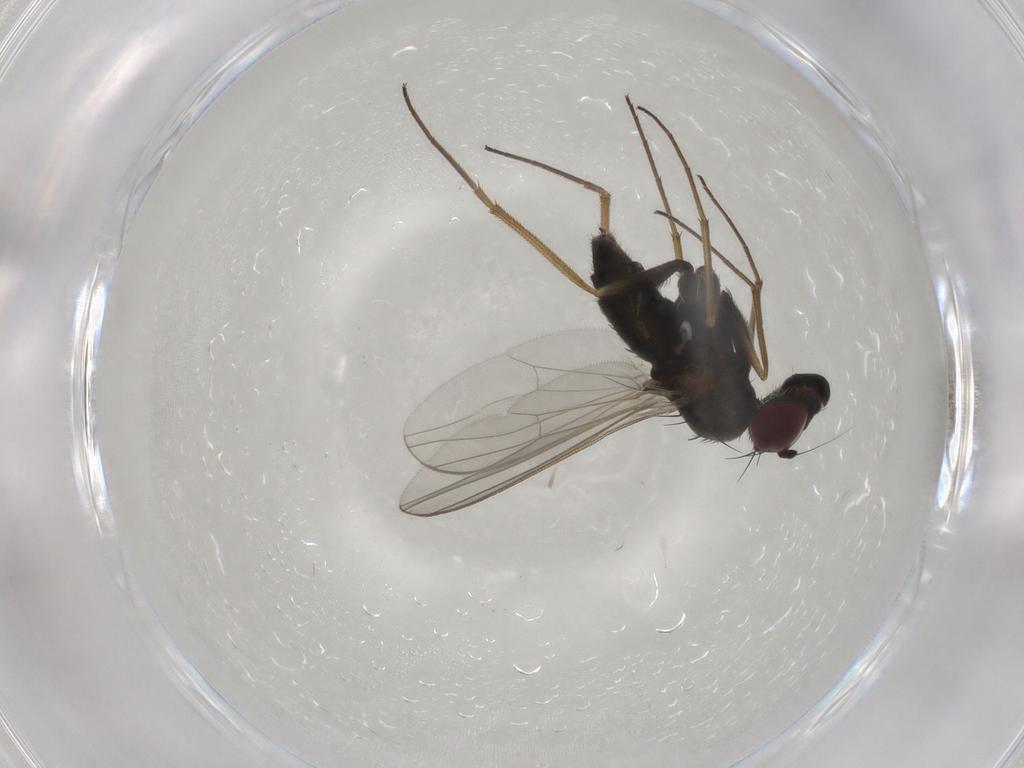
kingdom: Animalia
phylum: Arthropoda
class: Insecta
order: Diptera
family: Dolichopodidae
